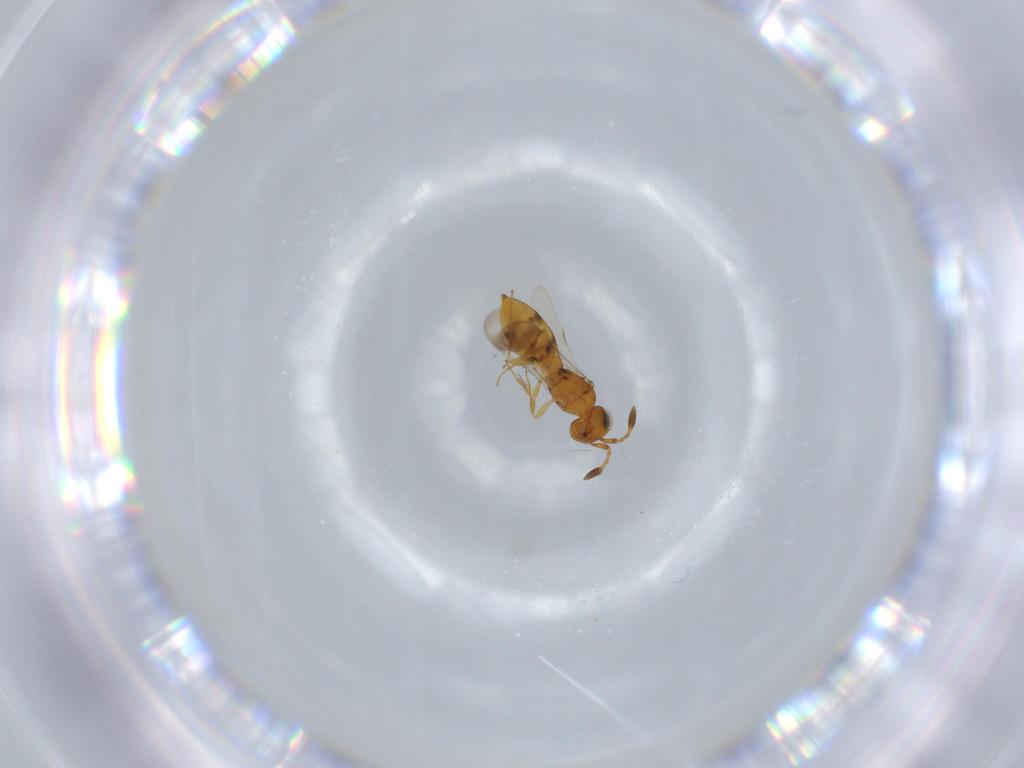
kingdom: Animalia
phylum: Arthropoda
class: Insecta
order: Hymenoptera
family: Scelionidae
